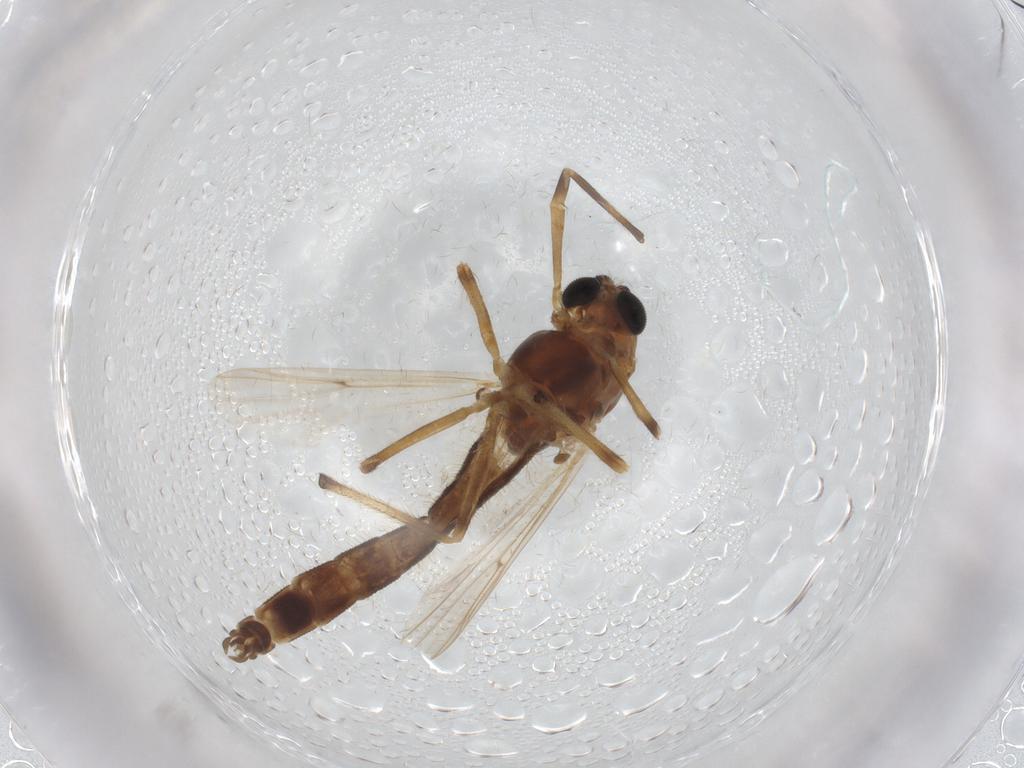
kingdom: Animalia
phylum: Arthropoda
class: Insecta
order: Diptera
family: Chironomidae
